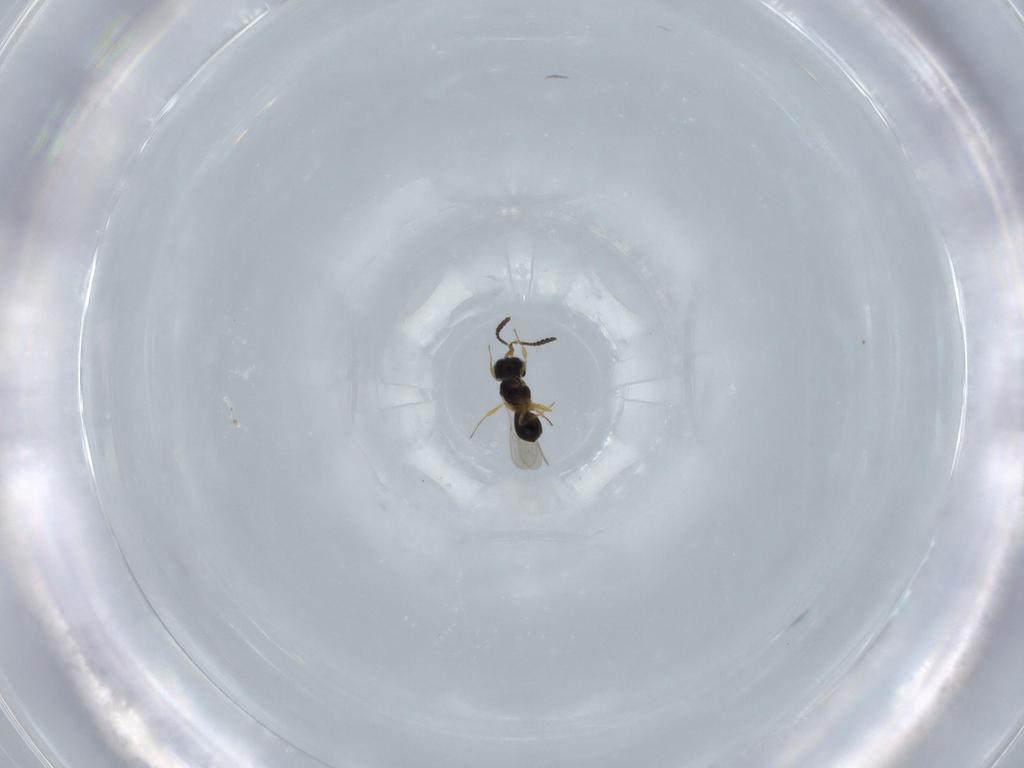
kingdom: Animalia
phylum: Arthropoda
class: Insecta
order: Hymenoptera
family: Scelionidae
